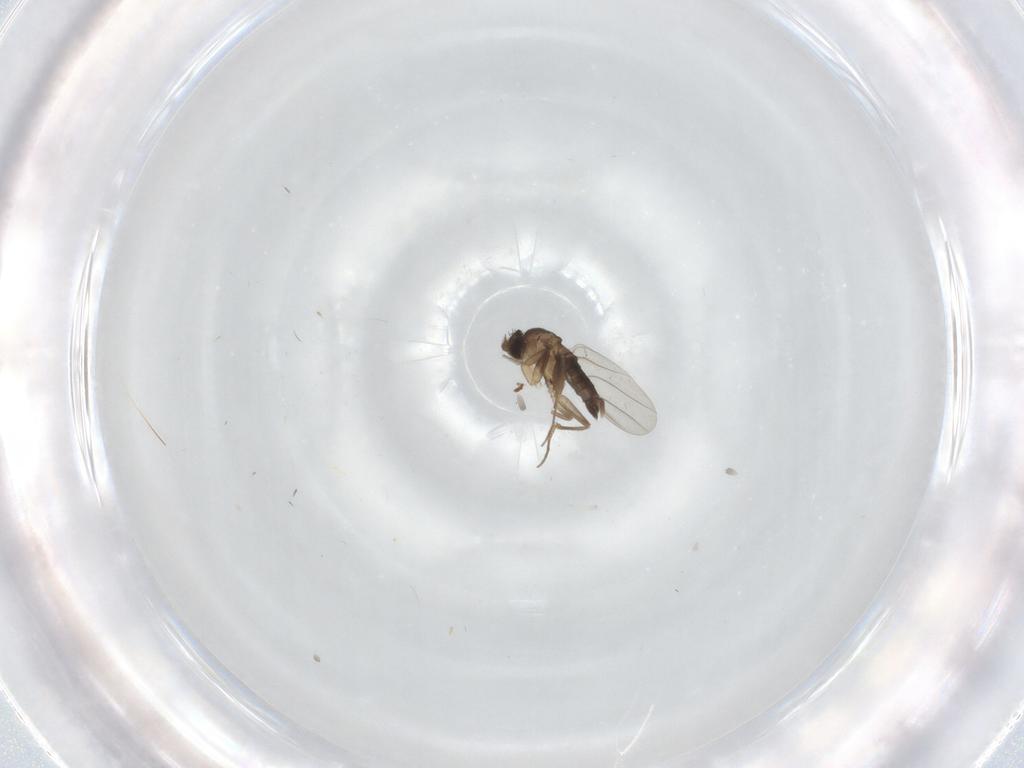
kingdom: Animalia
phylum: Arthropoda
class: Insecta
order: Diptera
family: Phoridae
